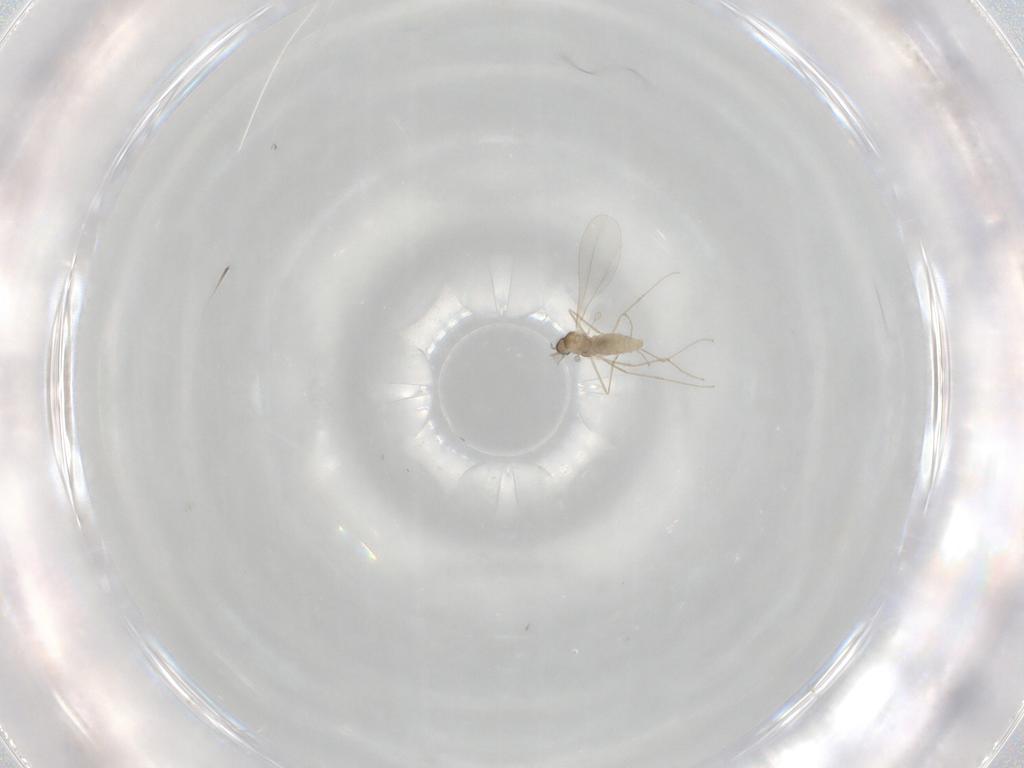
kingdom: Animalia
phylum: Arthropoda
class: Insecta
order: Diptera
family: Cecidomyiidae
